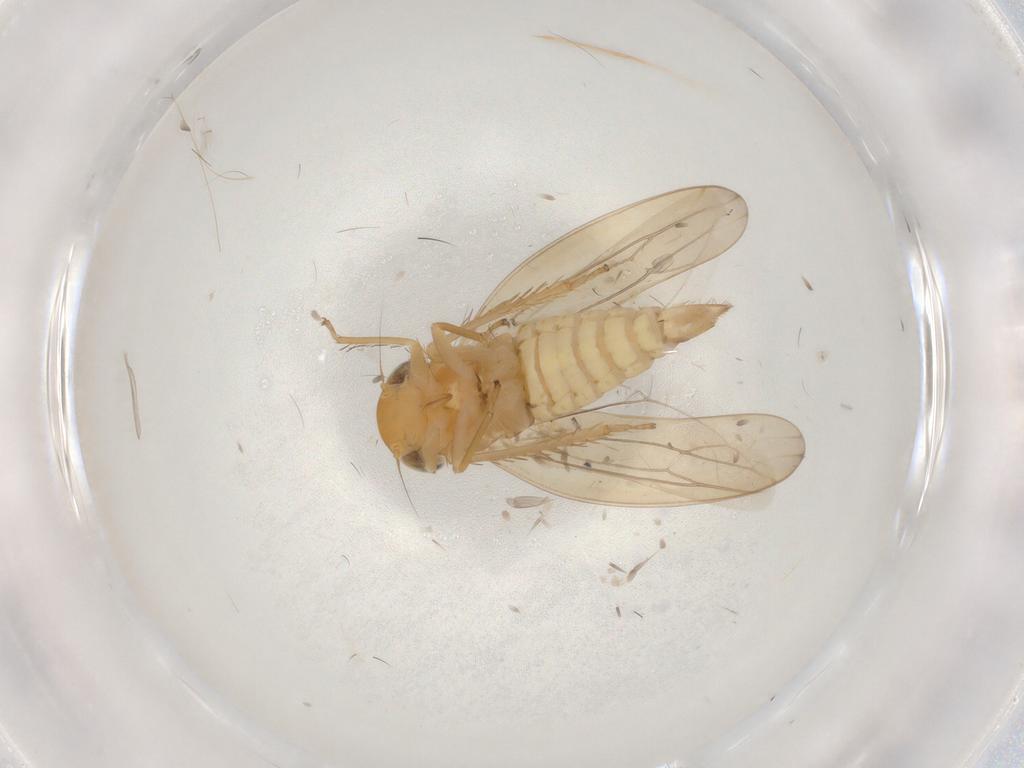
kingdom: Animalia
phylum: Arthropoda
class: Insecta
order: Hemiptera
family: Cicadellidae
